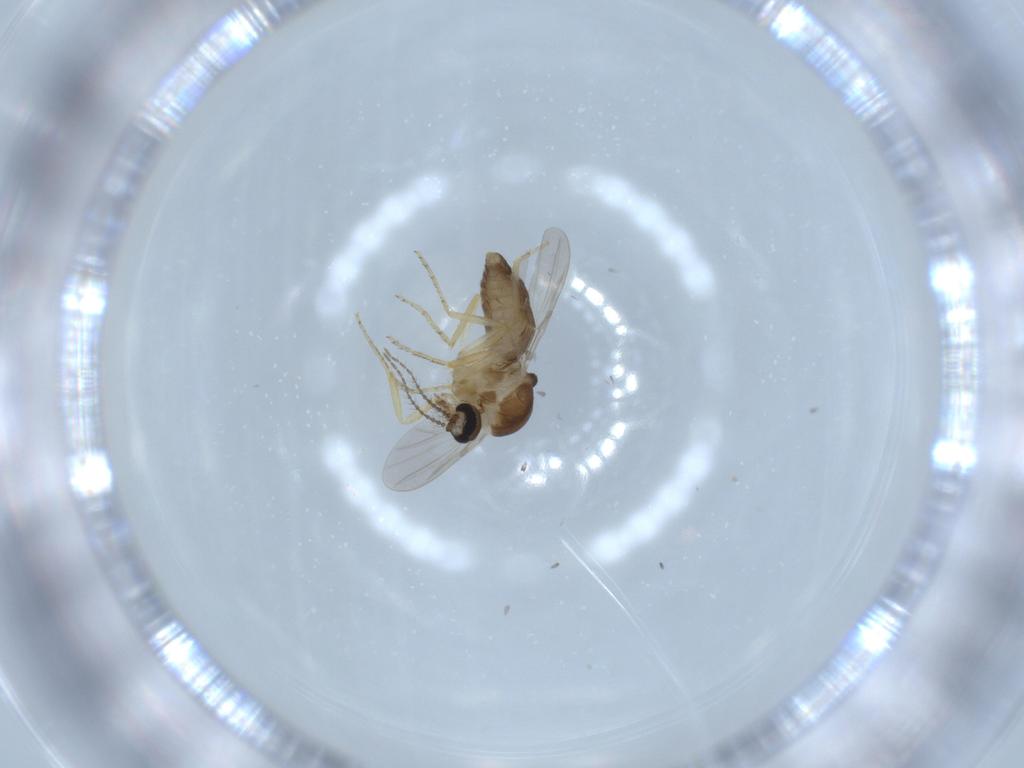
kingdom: Animalia
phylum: Arthropoda
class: Insecta
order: Diptera
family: Ceratopogonidae
